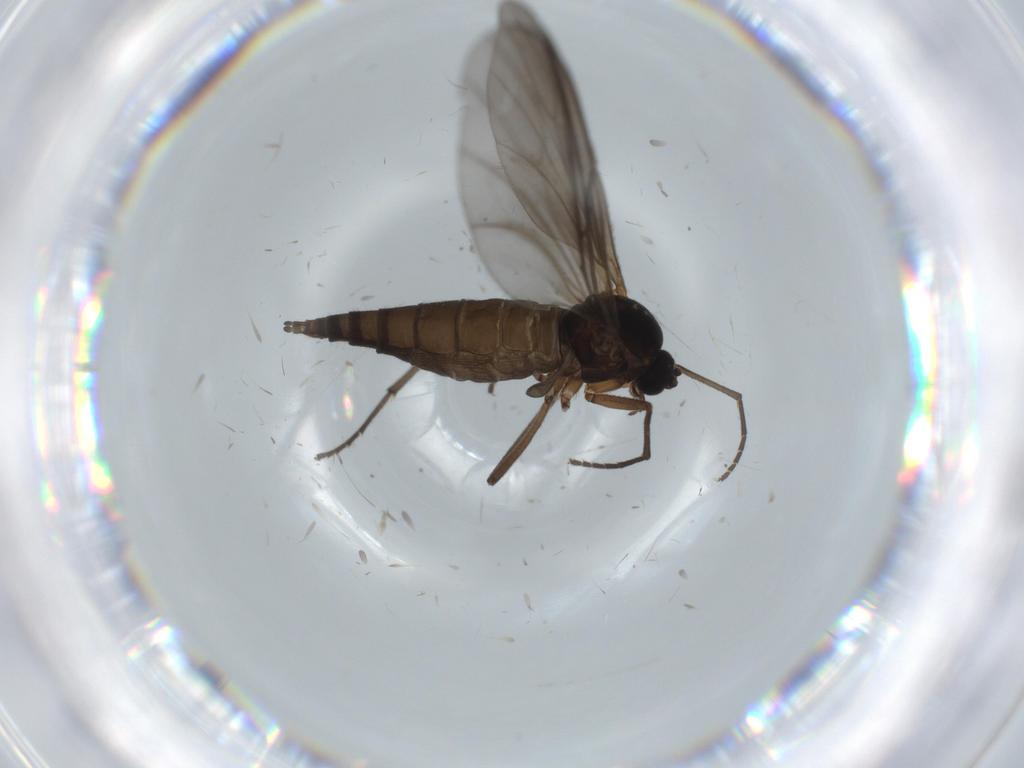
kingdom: Animalia
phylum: Arthropoda
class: Insecta
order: Diptera
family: Sciaridae
